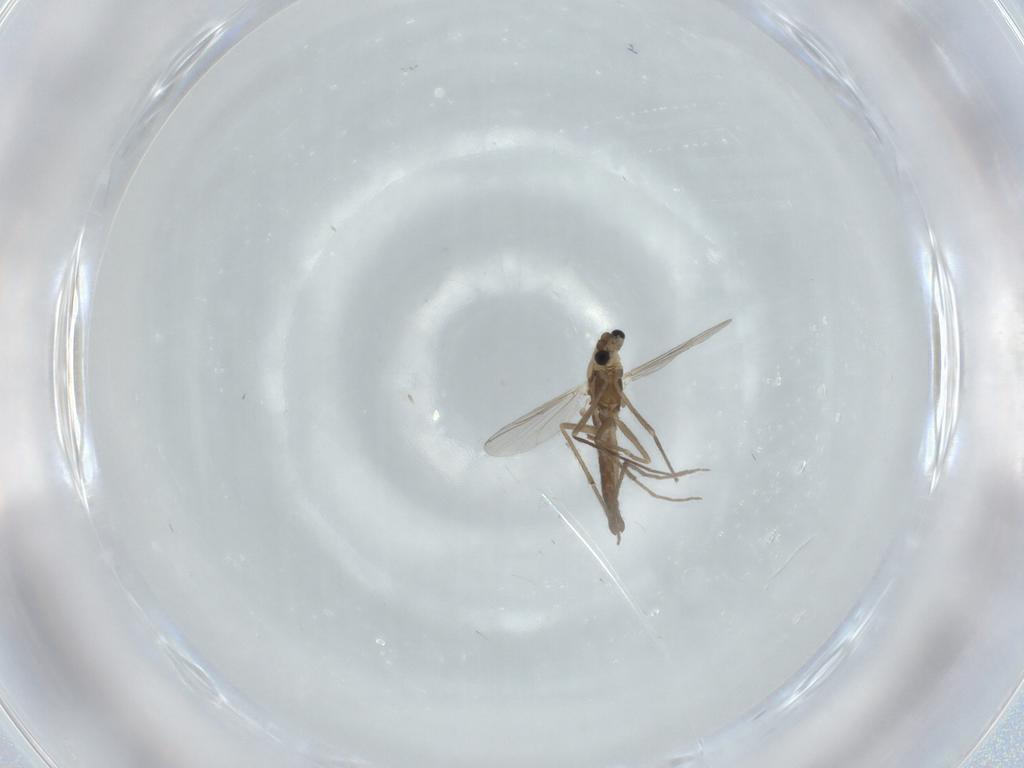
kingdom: Animalia
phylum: Arthropoda
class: Insecta
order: Diptera
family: Chironomidae
